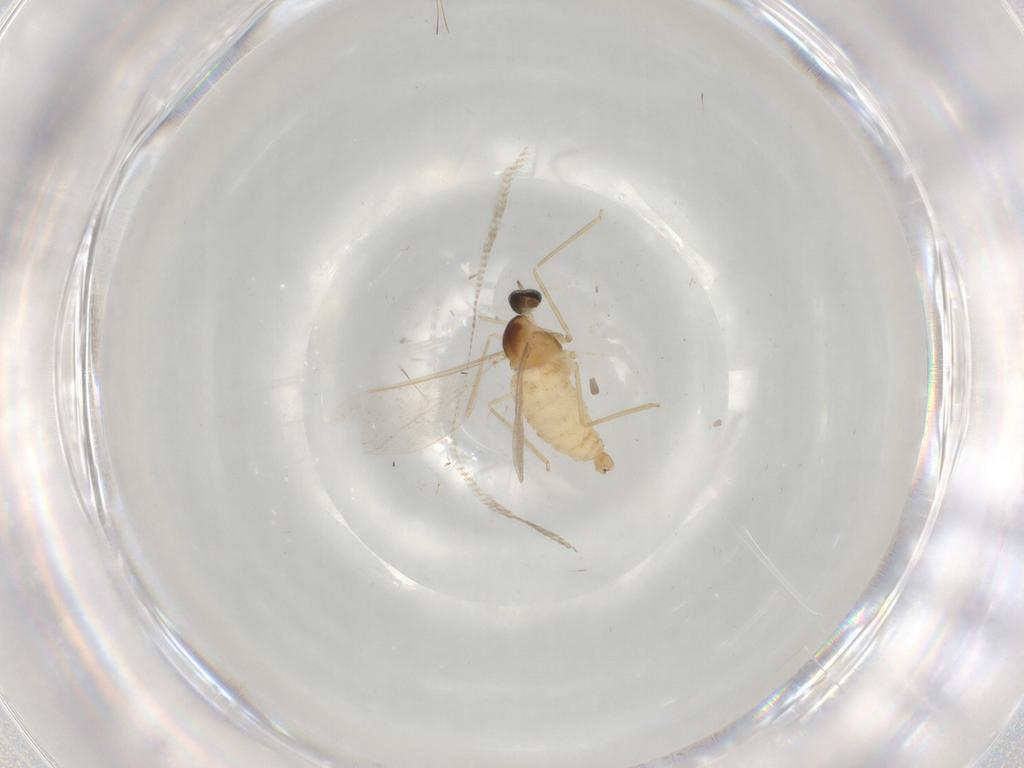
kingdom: Animalia
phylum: Arthropoda
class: Insecta
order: Diptera
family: Cecidomyiidae
